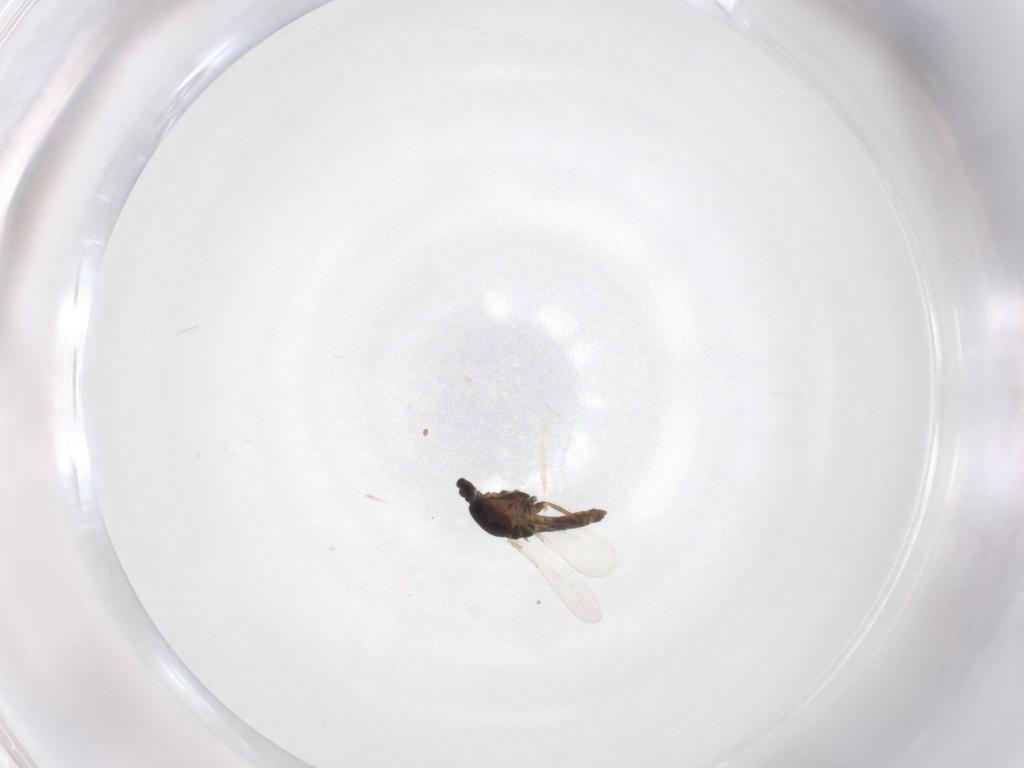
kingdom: Animalia
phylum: Arthropoda
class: Insecta
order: Diptera
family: Chironomidae
